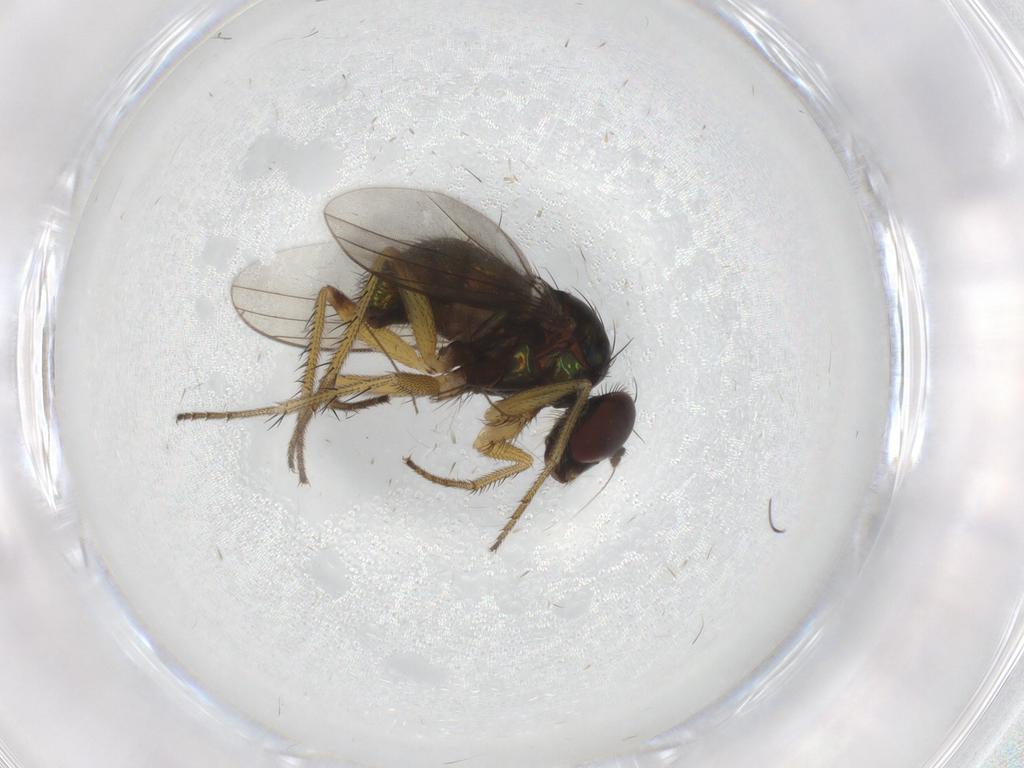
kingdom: Animalia
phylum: Arthropoda
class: Insecta
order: Diptera
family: Dolichopodidae
